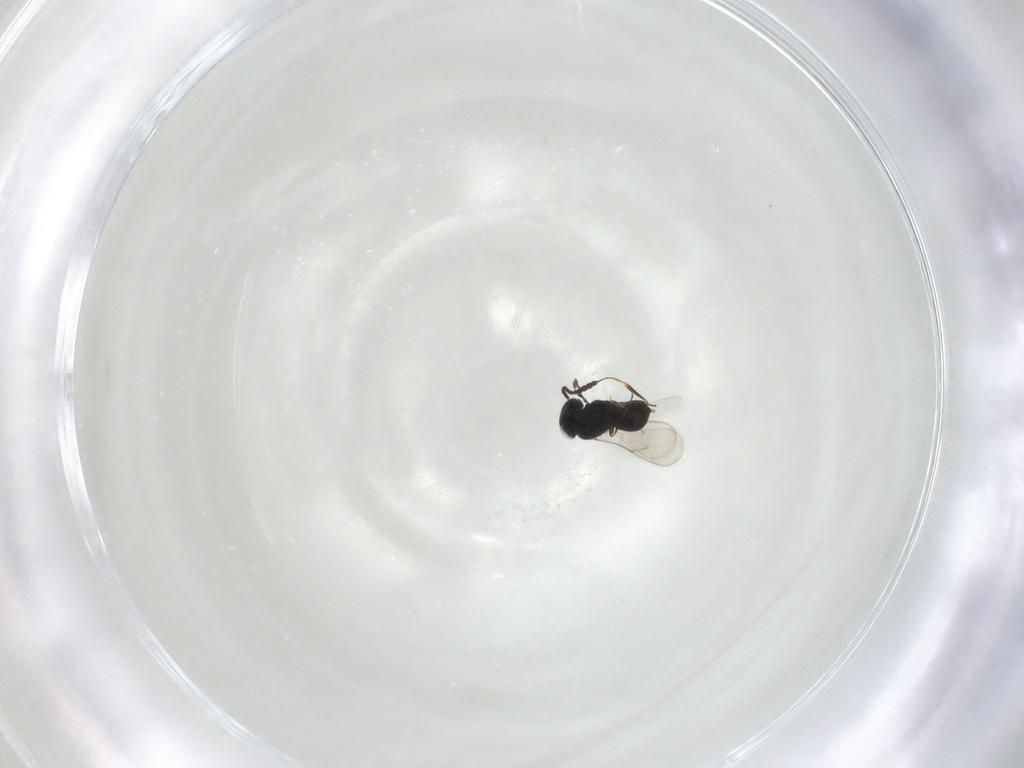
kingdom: Animalia
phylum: Arthropoda
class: Insecta
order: Hymenoptera
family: Scelionidae
